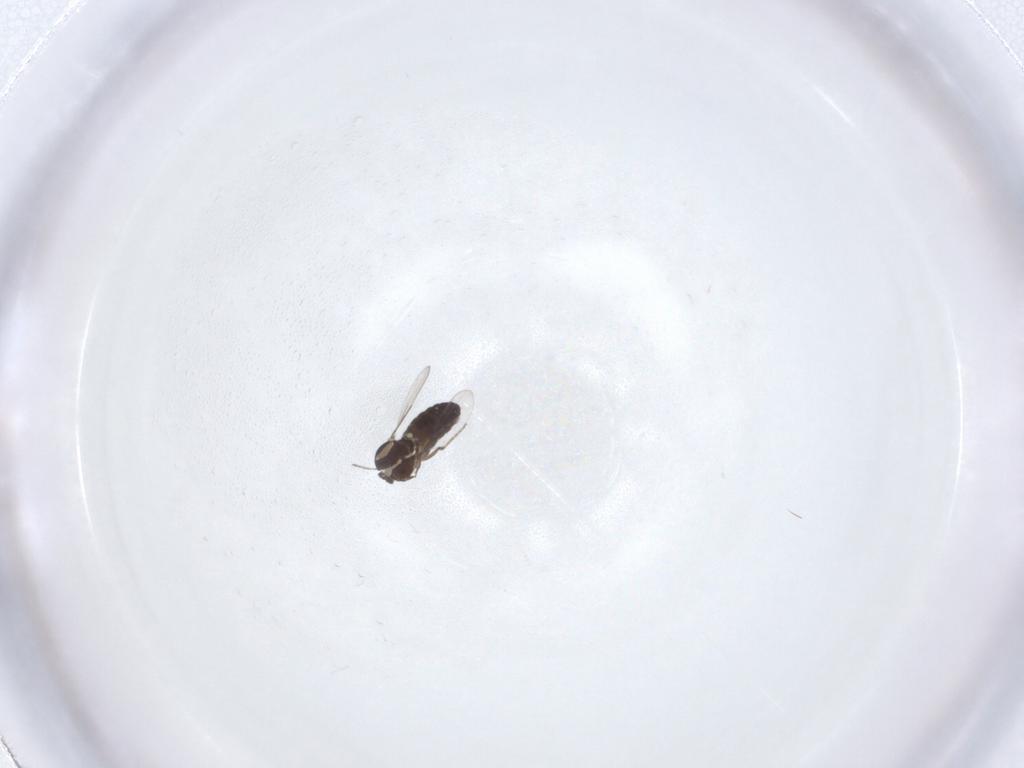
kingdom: Animalia
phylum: Arthropoda
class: Insecta
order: Diptera
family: Ceratopogonidae
